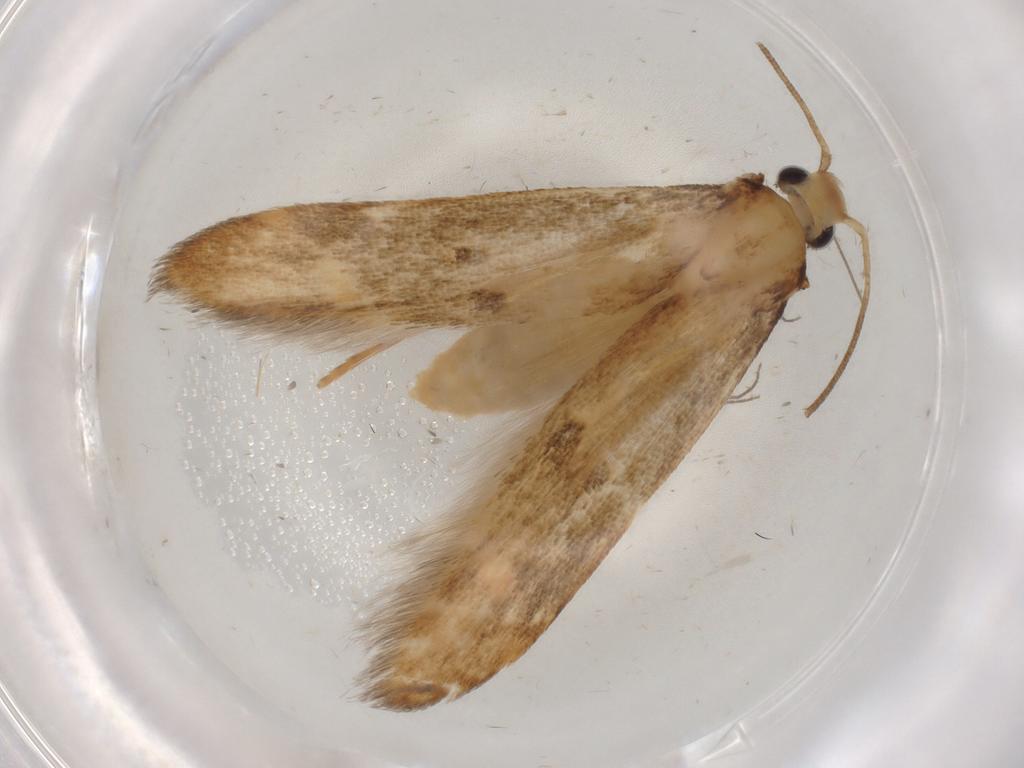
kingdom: Animalia
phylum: Arthropoda
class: Insecta
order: Lepidoptera
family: Nolidae
